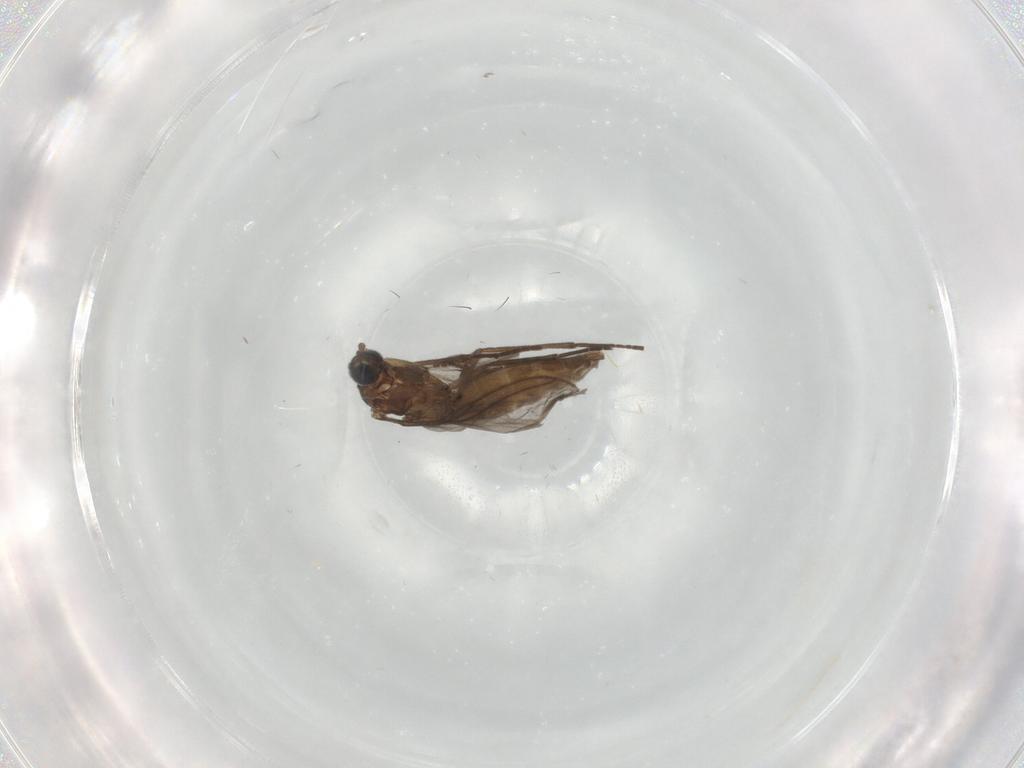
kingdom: Animalia
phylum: Arthropoda
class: Insecta
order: Diptera
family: Sciaridae
